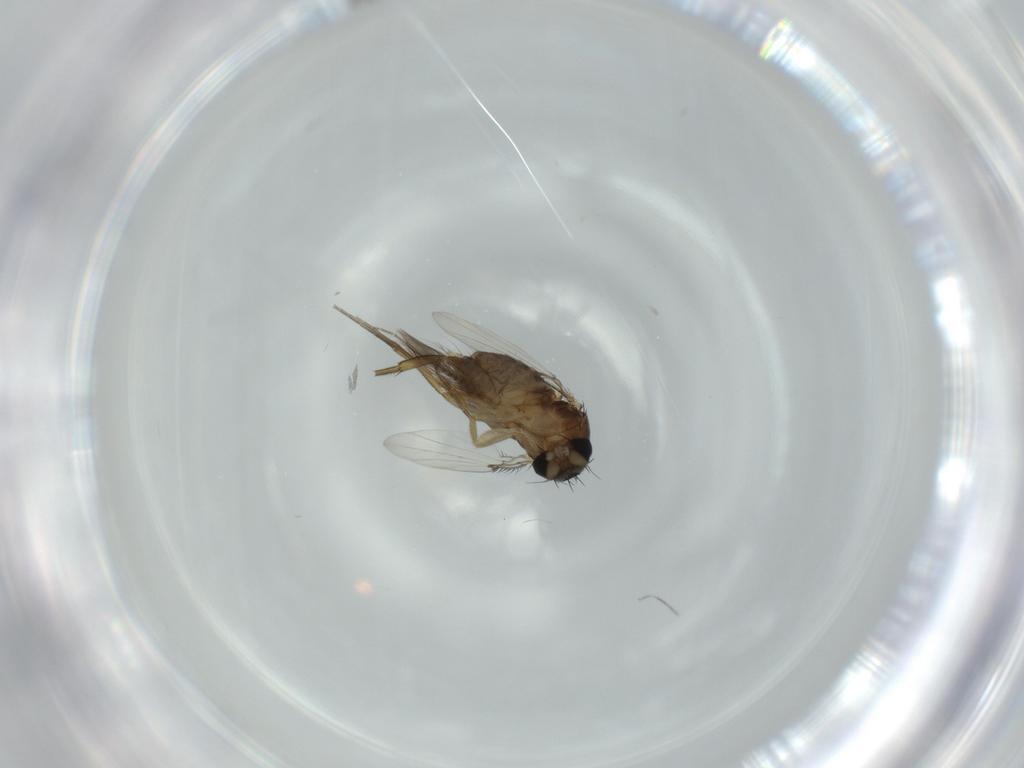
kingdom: Animalia
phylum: Arthropoda
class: Insecta
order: Diptera
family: Phoridae
